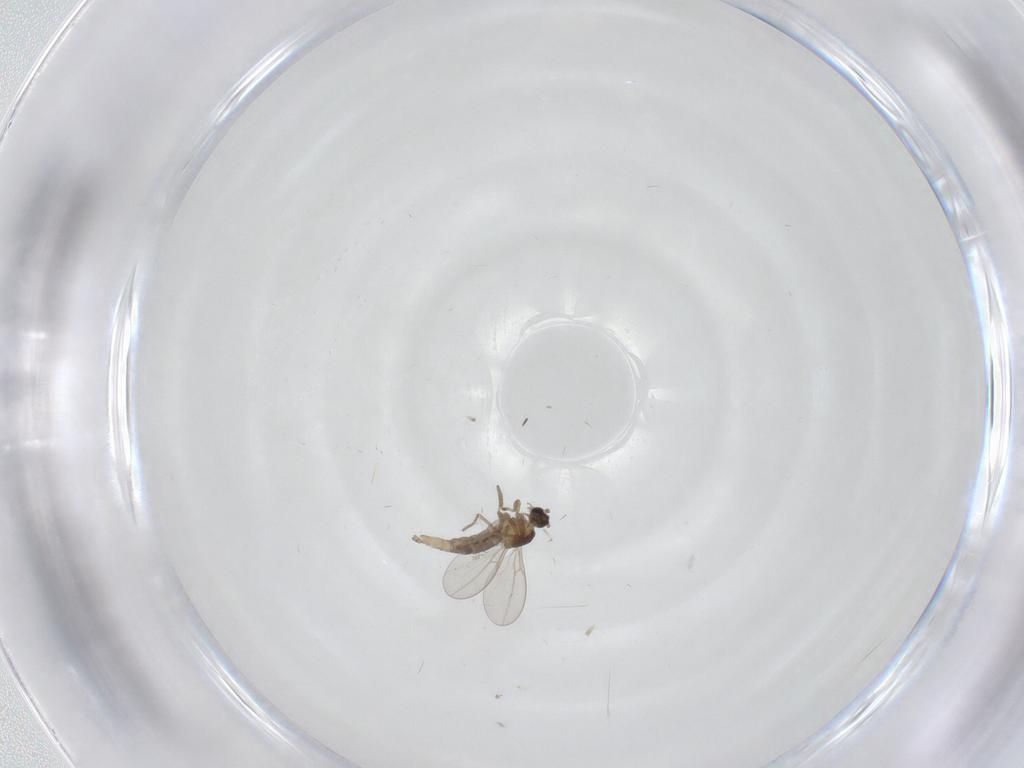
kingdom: Animalia
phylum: Arthropoda
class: Insecta
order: Diptera
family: Cecidomyiidae
